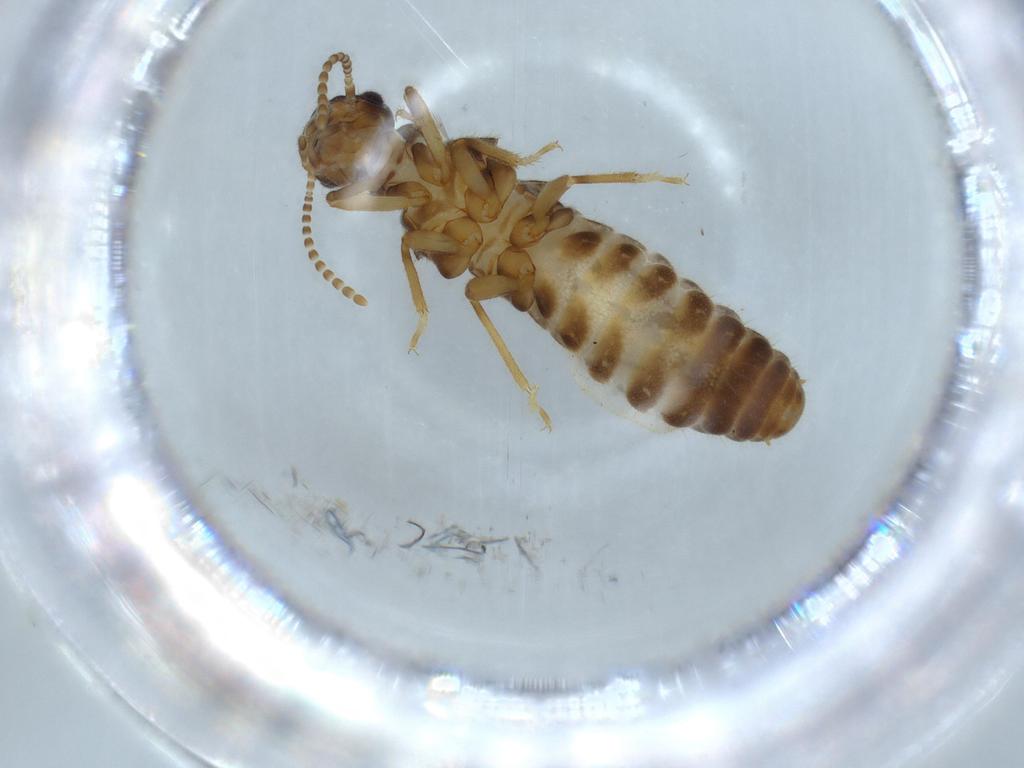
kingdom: Animalia
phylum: Arthropoda
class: Insecta
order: Blattodea
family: Termitidae
